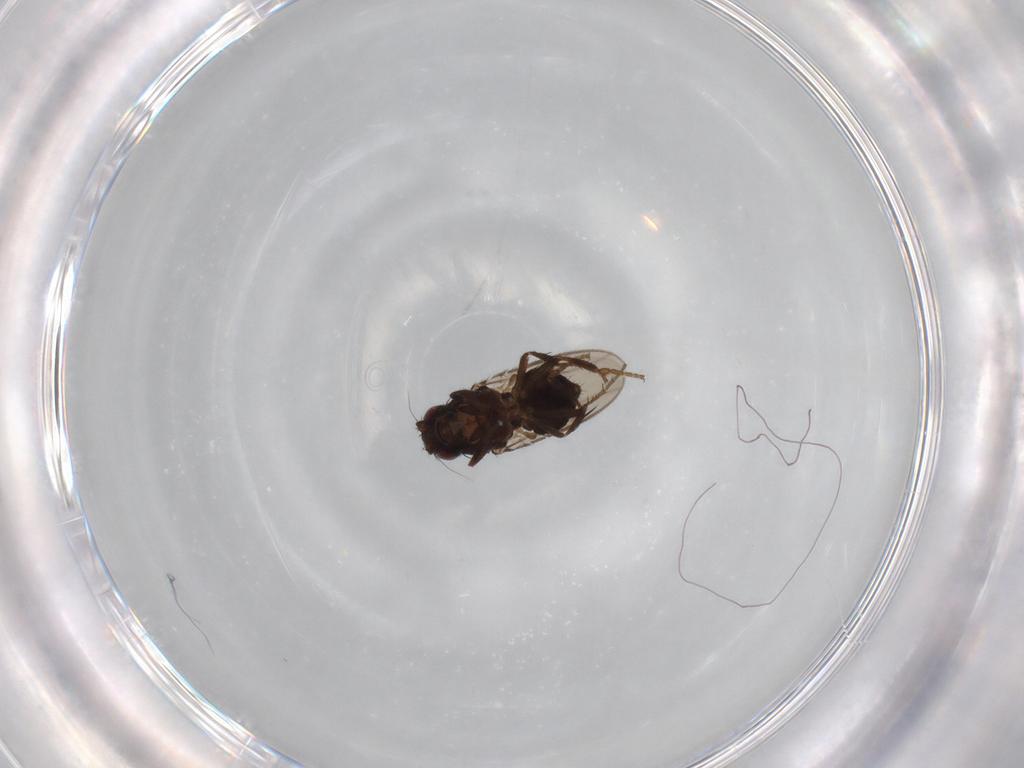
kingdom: Animalia
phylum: Arthropoda
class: Insecta
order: Diptera
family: Sphaeroceridae
